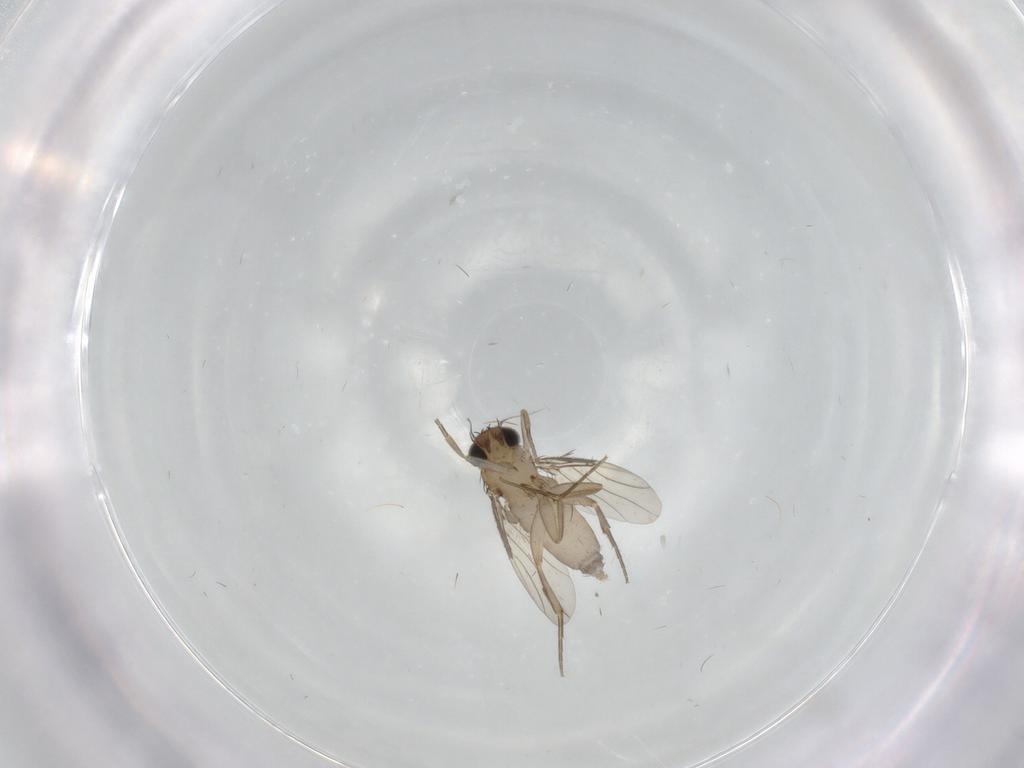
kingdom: Animalia
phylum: Arthropoda
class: Insecta
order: Diptera
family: Phoridae
